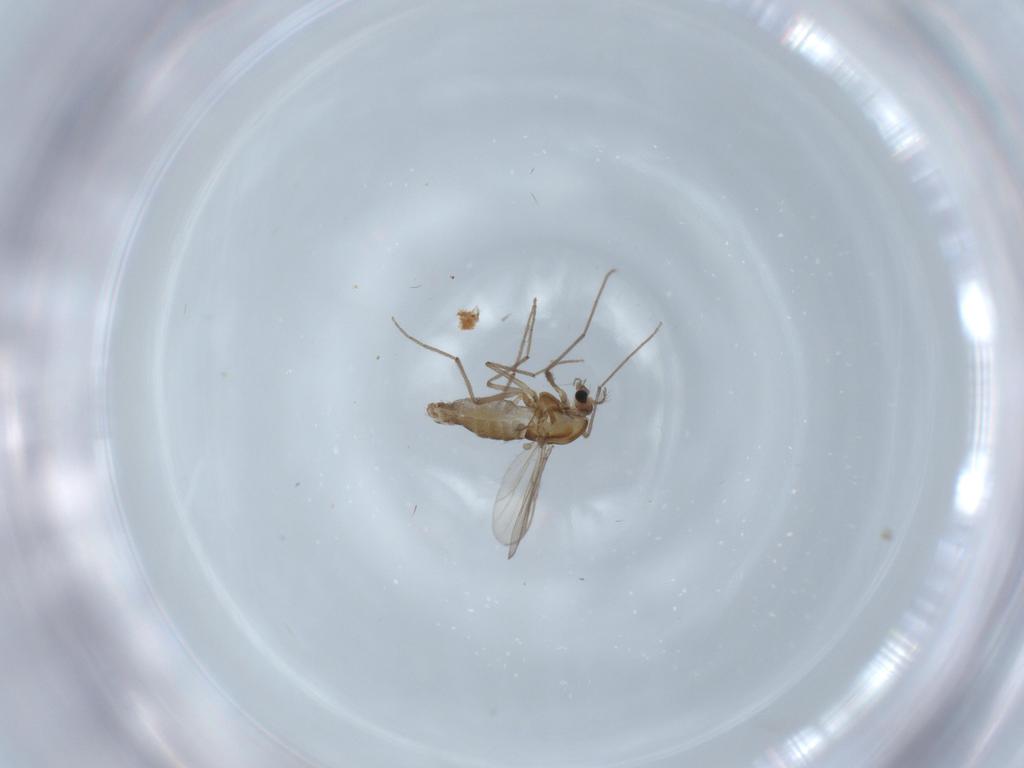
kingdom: Animalia
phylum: Arthropoda
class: Insecta
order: Diptera
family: Chironomidae
